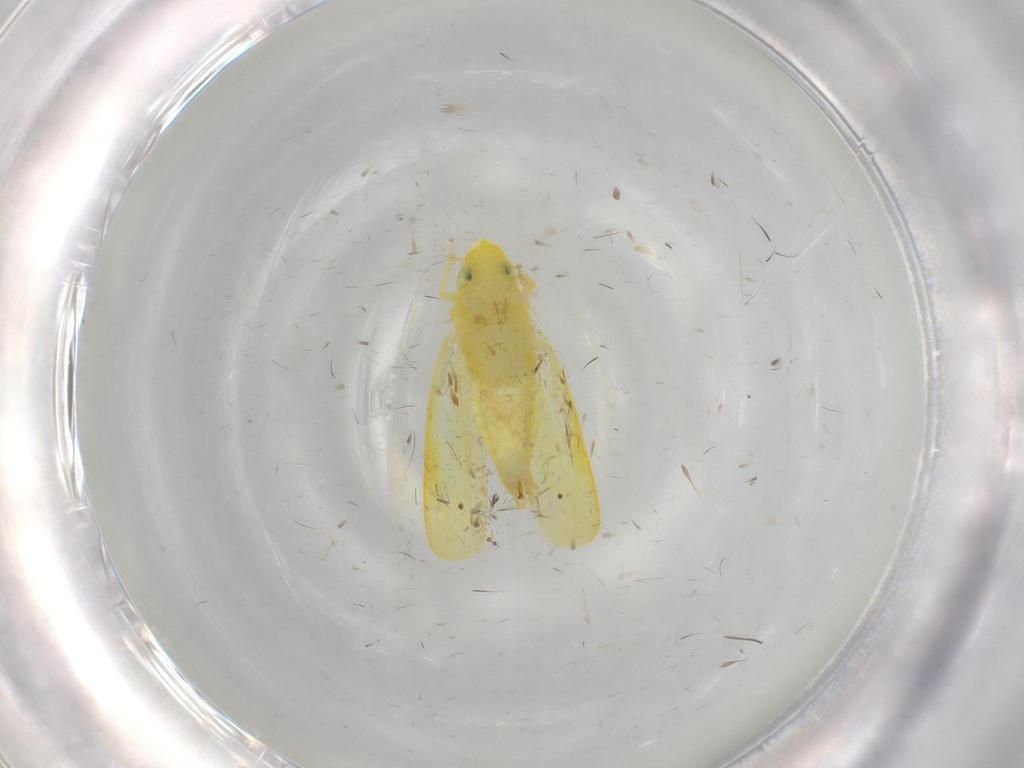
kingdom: Animalia
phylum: Arthropoda
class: Insecta
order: Hemiptera
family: Cicadellidae
